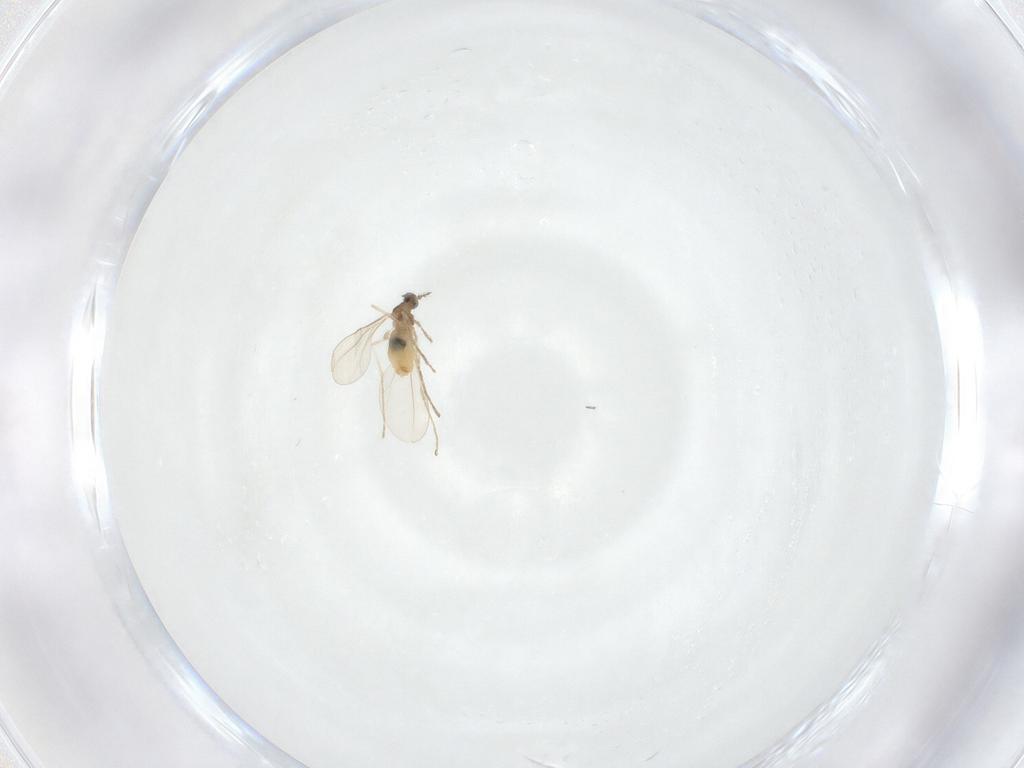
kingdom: Animalia
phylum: Arthropoda
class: Insecta
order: Diptera
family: Cecidomyiidae
